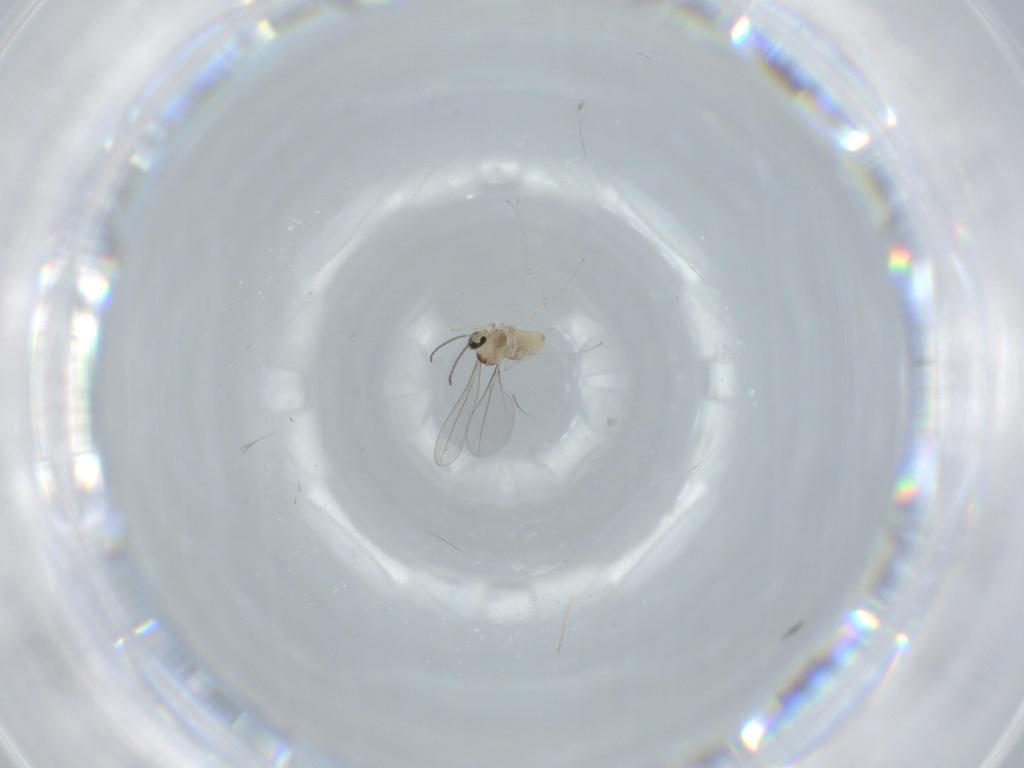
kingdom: Animalia
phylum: Arthropoda
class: Insecta
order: Diptera
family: Cecidomyiidae
